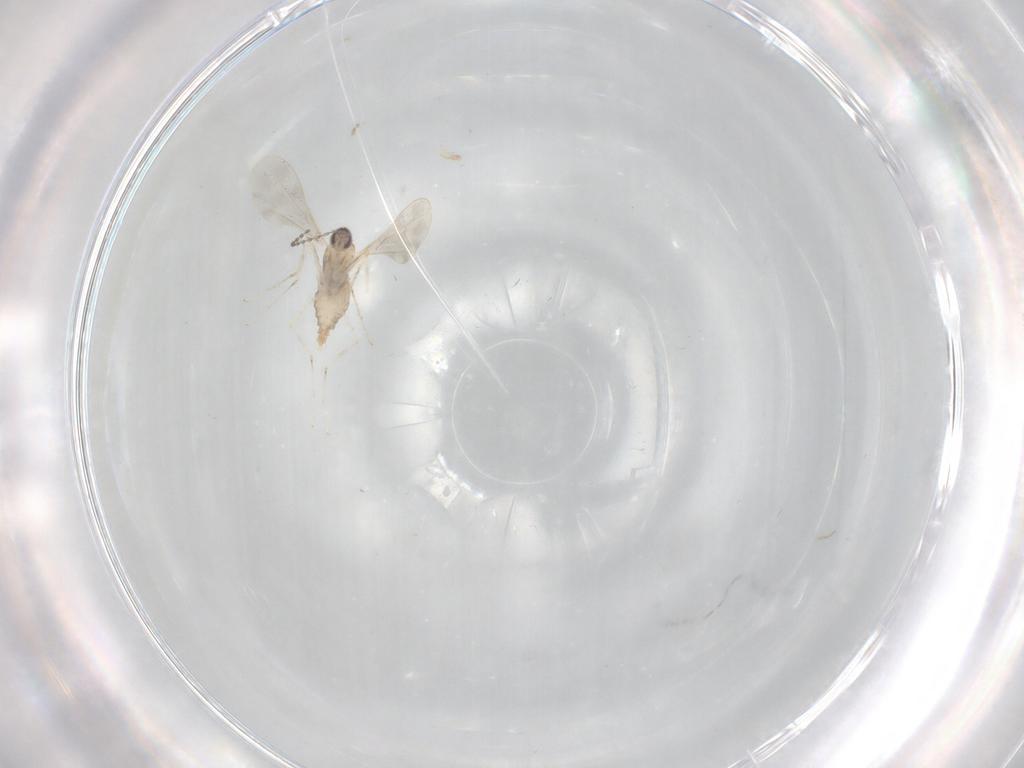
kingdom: Animalia
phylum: Arthropoda
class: Insecta
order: Diptera
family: Cecidomyiidae
